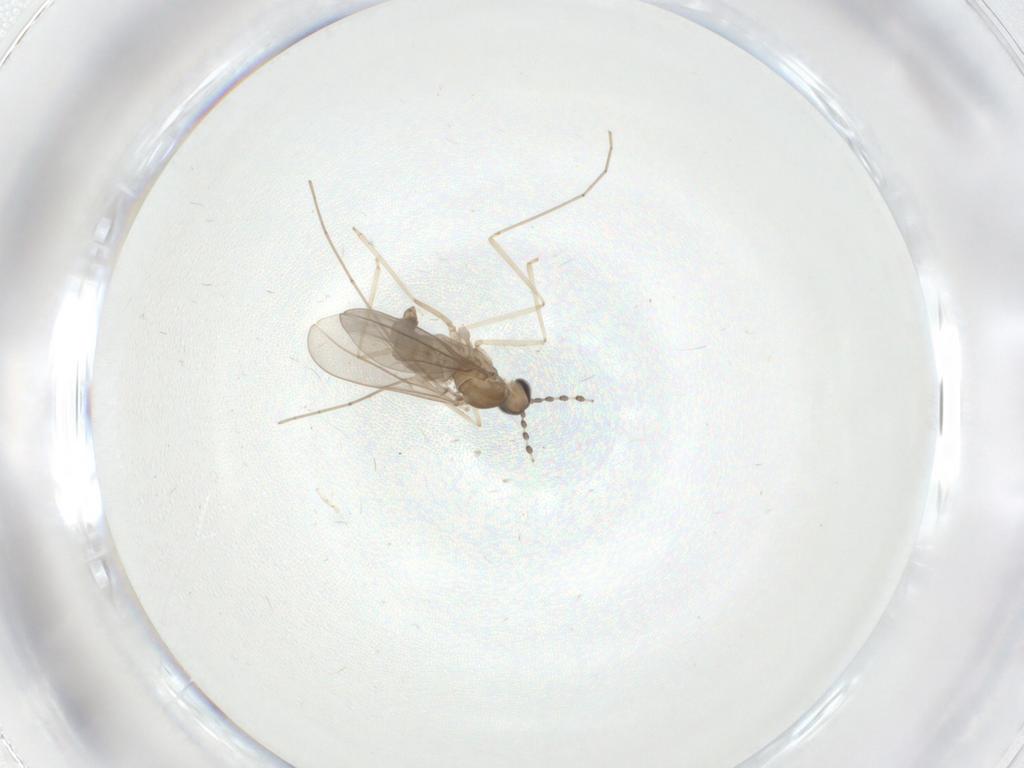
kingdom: Animalia
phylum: Arthropoda
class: Insecta
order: Diptera
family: Cecidomyiidae
